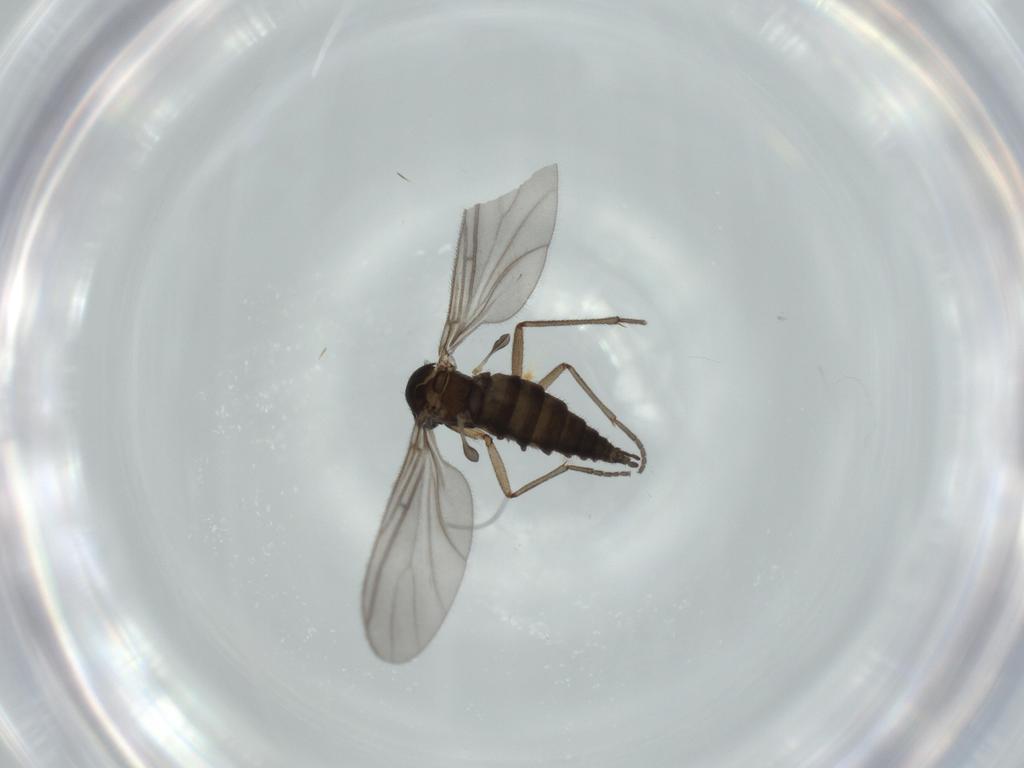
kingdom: Animalia
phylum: Arthropoda
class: Insecta
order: Diptera
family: Sciaridae
